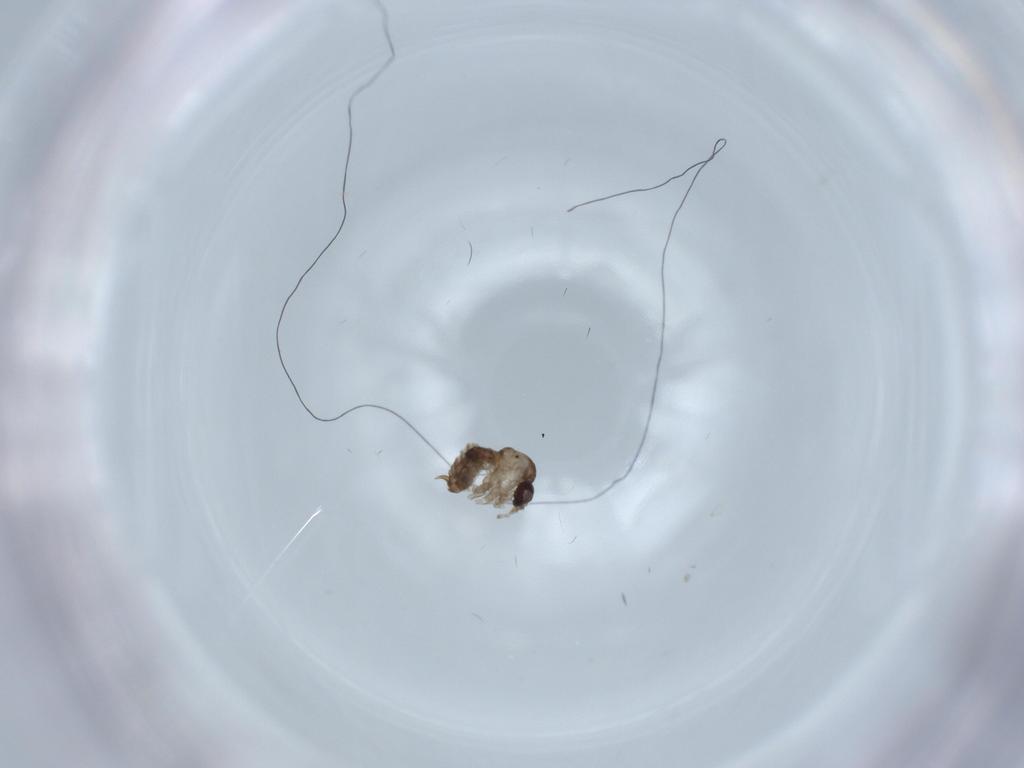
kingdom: Animalia
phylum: Arthropoda
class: Insecta
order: Diptera
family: Psychodidae
